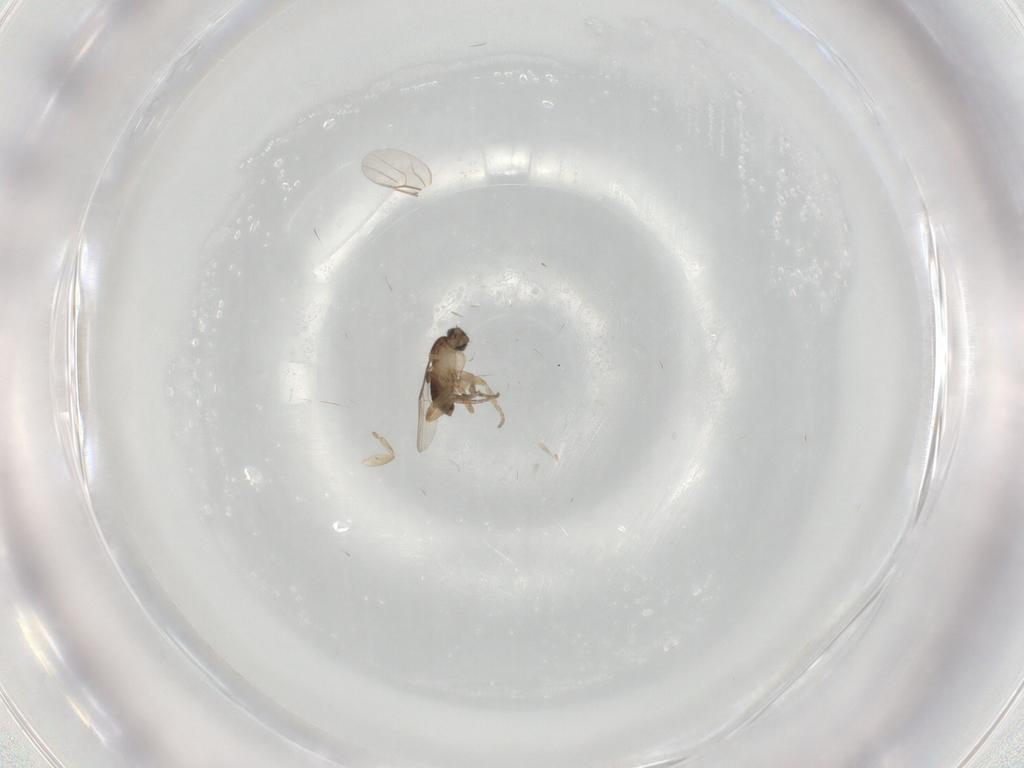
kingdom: Animalia
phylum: Arthropoda
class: Insecta
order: Diptera
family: Phoridae
